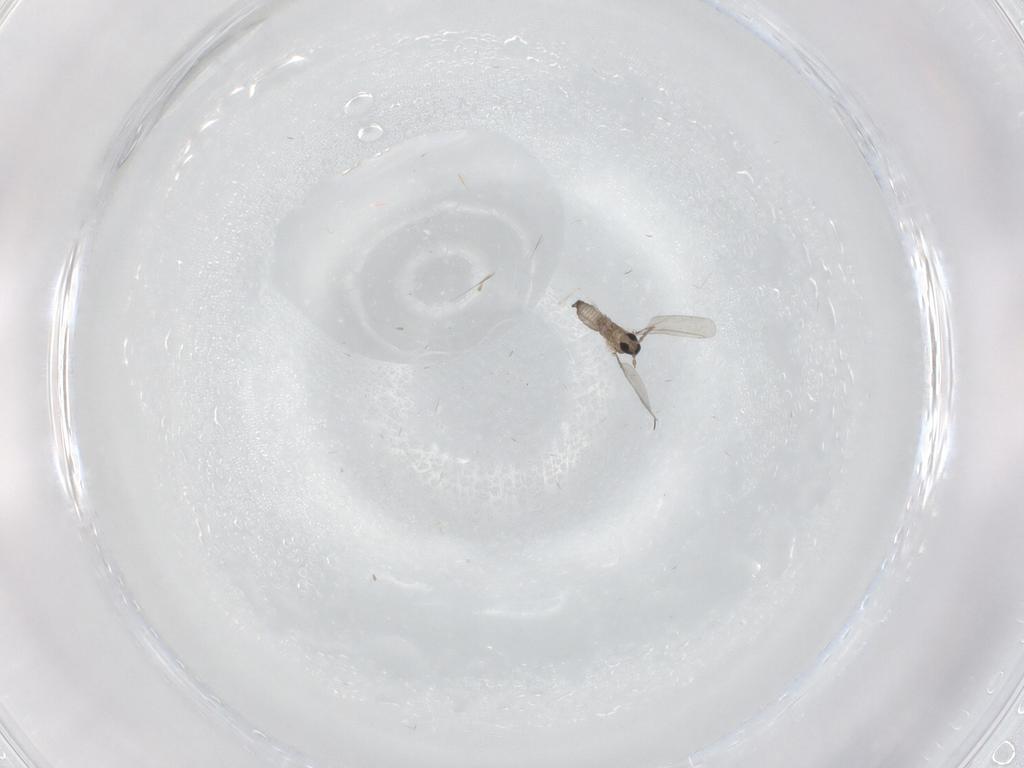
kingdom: Animalia
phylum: Arthropoda
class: Insecta
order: Diptera
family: Cecidomyiidae
